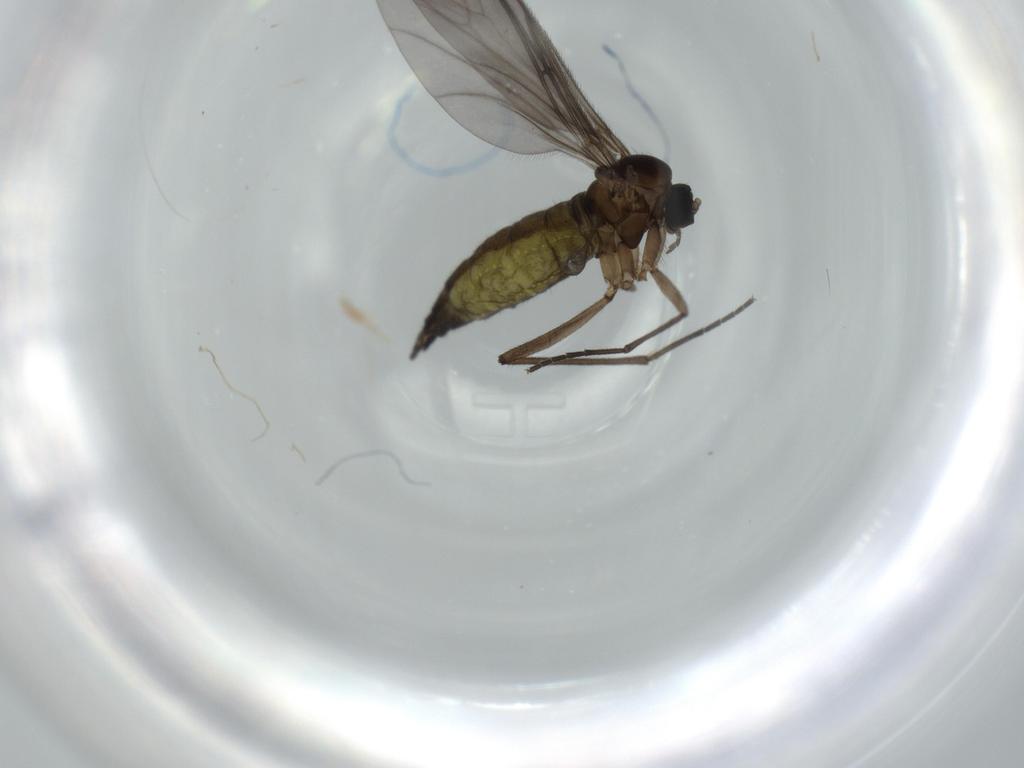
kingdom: Animalia
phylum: Arthropoda
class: Insecta
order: Diptera
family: Sciaridae
